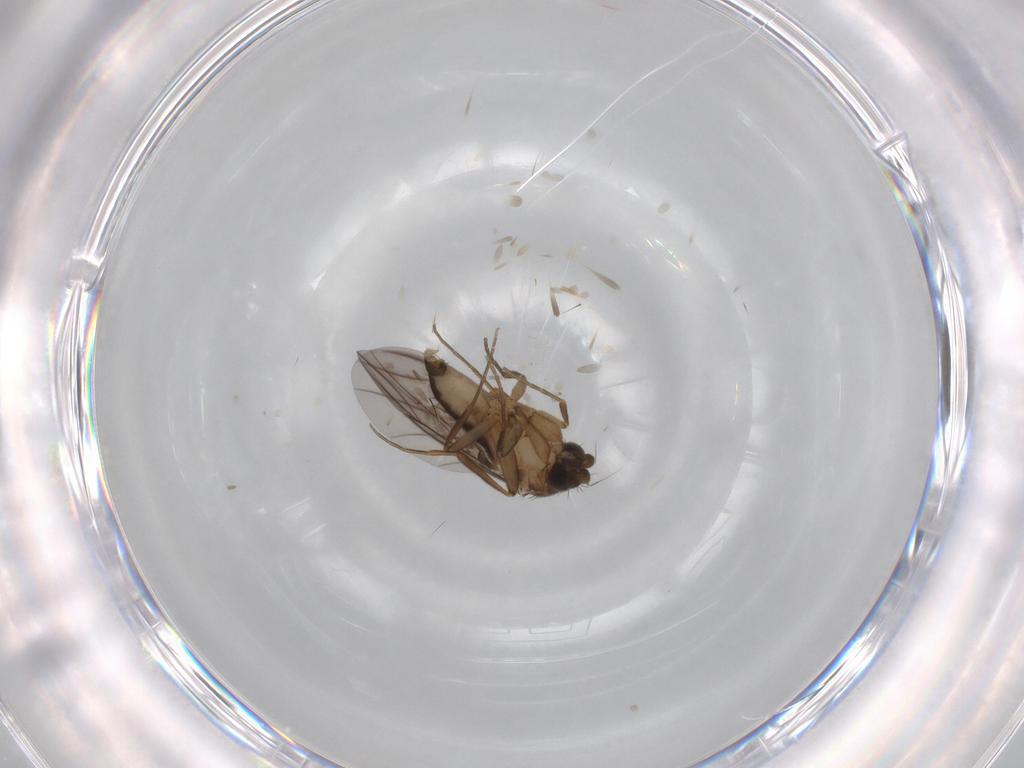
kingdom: Animalia
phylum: Arthropoda
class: Insecta
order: Diptera
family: Phoridae
